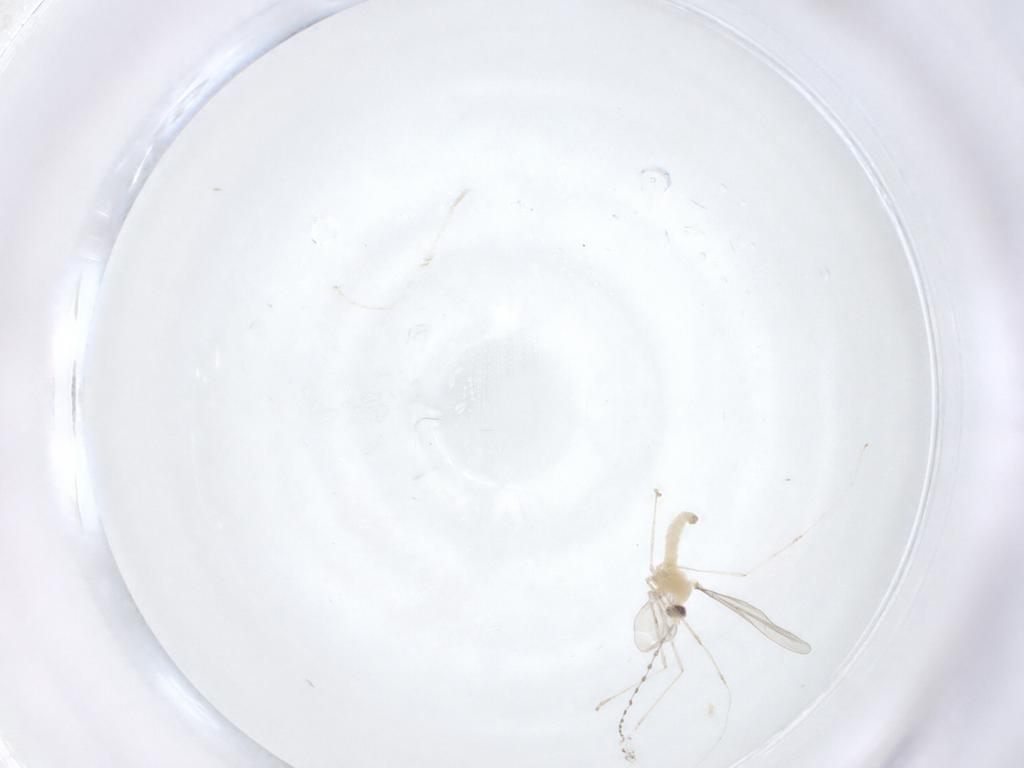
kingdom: Animalia
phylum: Arthropoda
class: Insecta
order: Diptera
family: Cecidomyiidae
